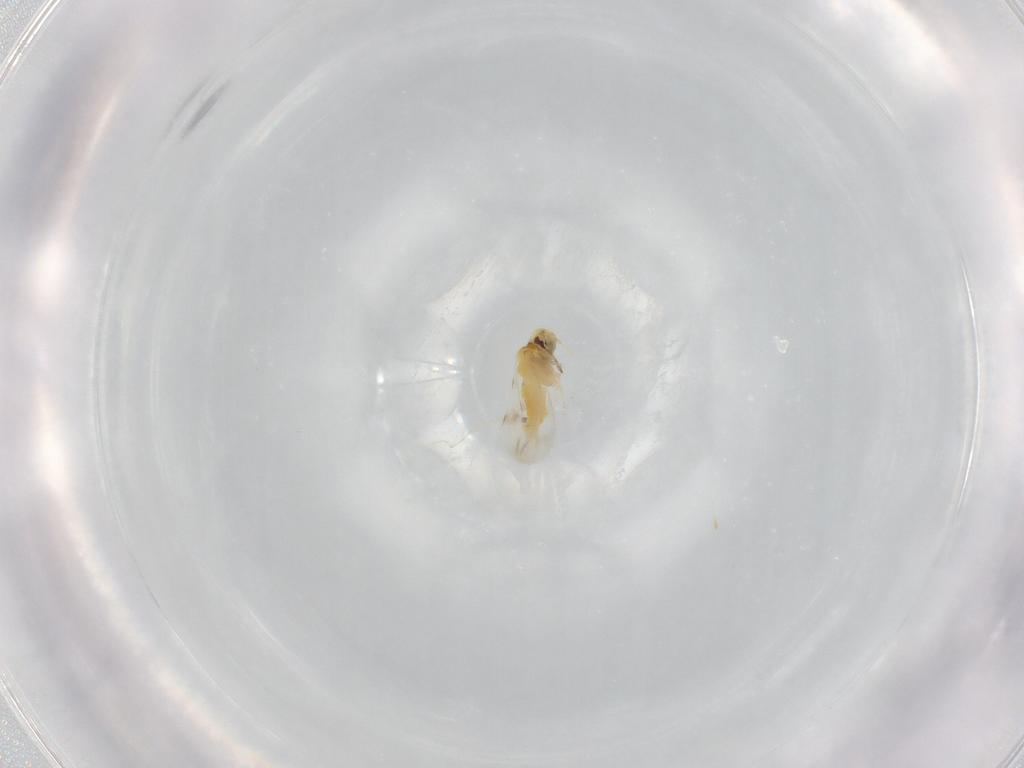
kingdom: Animalia
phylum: Arthropoda
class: Insecta
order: Hemiptera
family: Aleyrodidae
